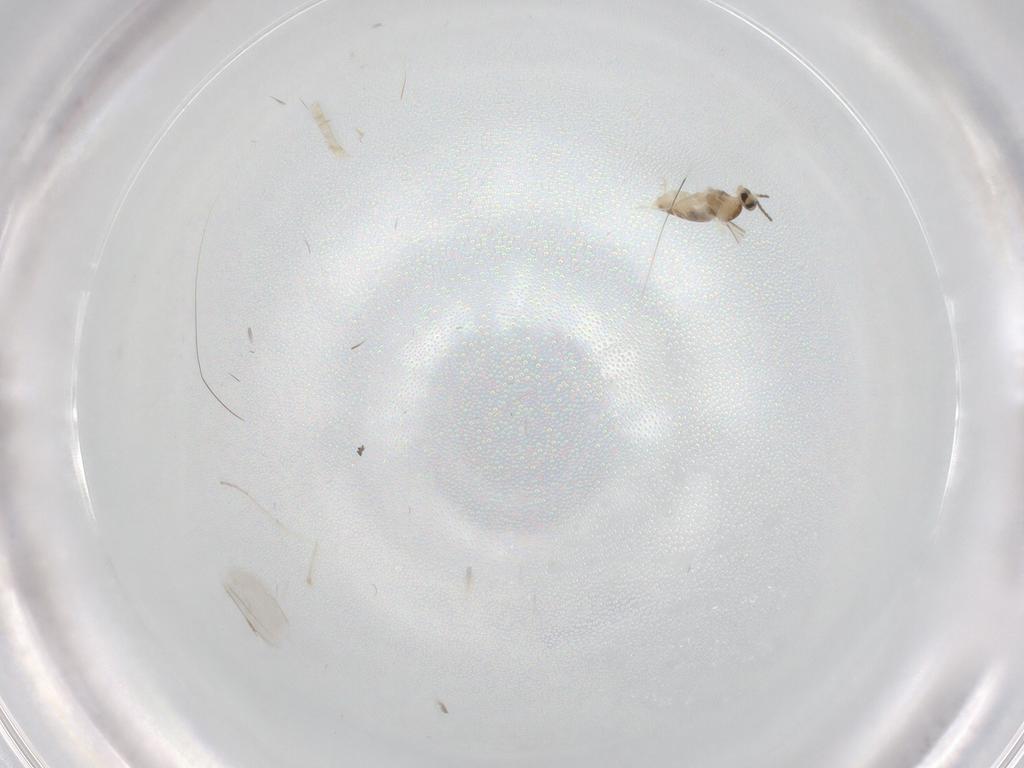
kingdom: Animalia
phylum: Arthropoda
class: Insecta
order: Diptera
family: Cecidomyiidae
